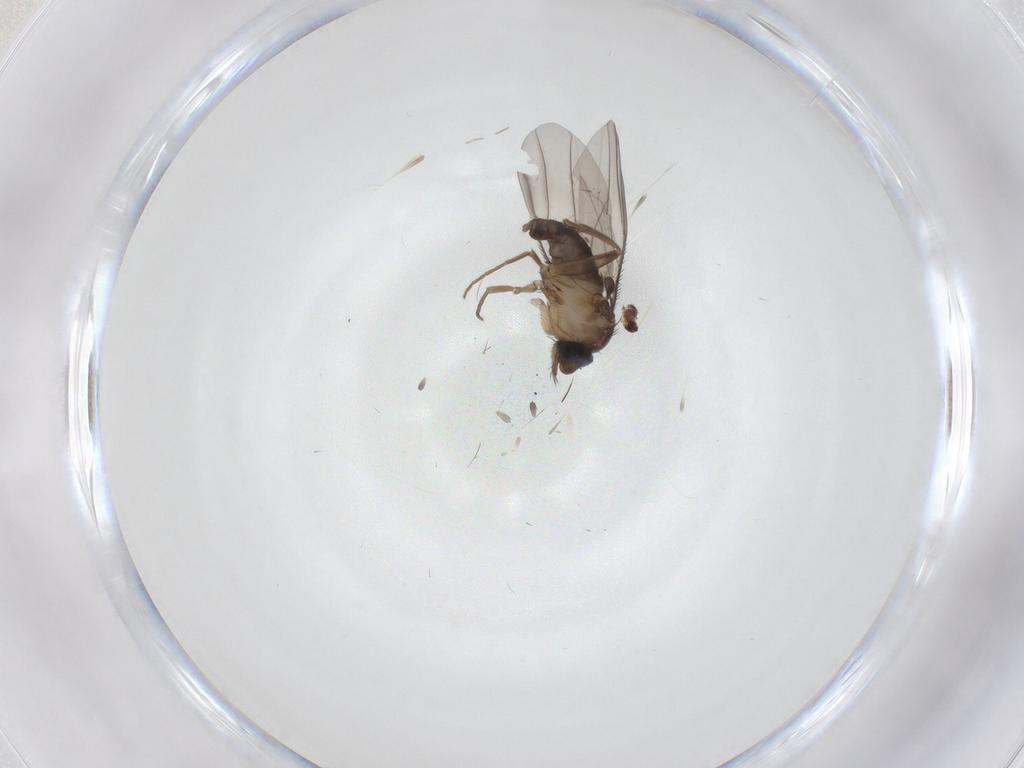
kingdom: Animalia
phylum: Arthropoda
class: Insecta
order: Diptera
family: Phoridae
